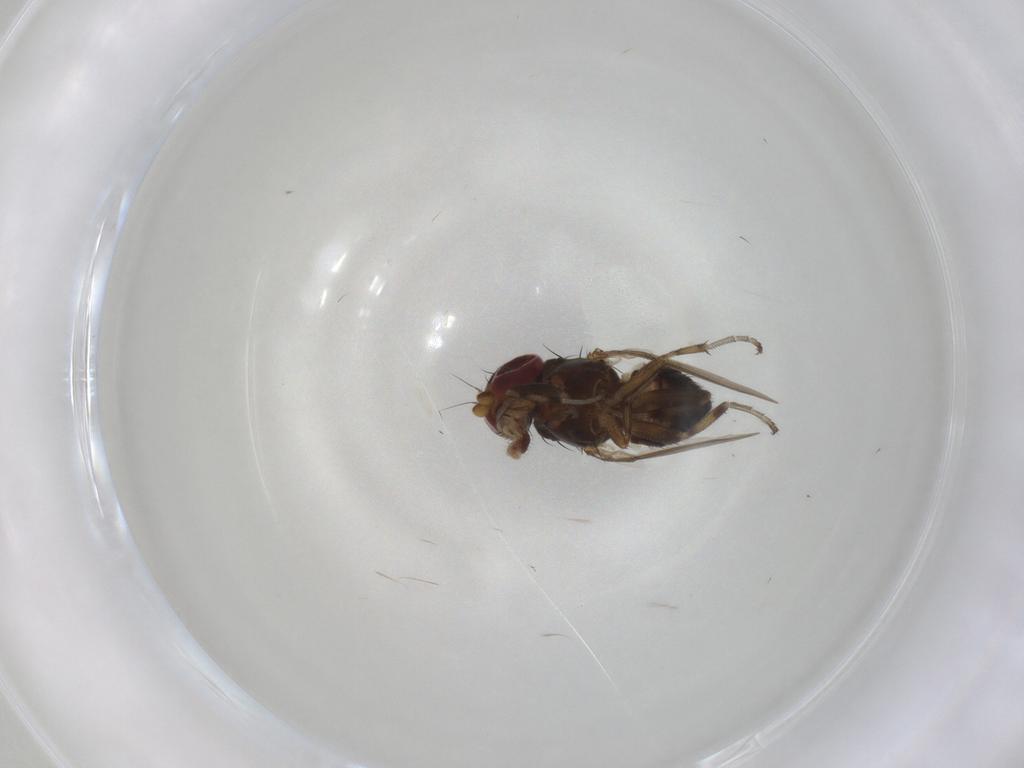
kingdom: Animalia
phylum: Arthropoda
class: Insecta
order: Diptera
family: Heleomyzidae
